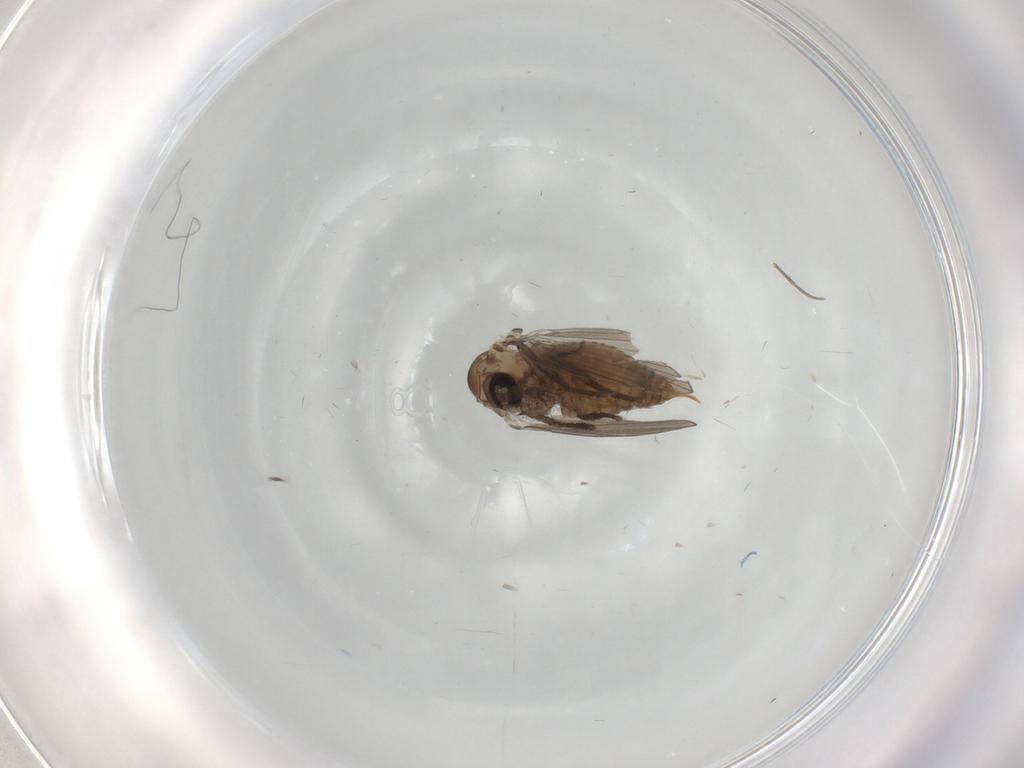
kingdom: Animalia
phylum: Arthropoda
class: Insecta
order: Diptera
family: Psychodidae
